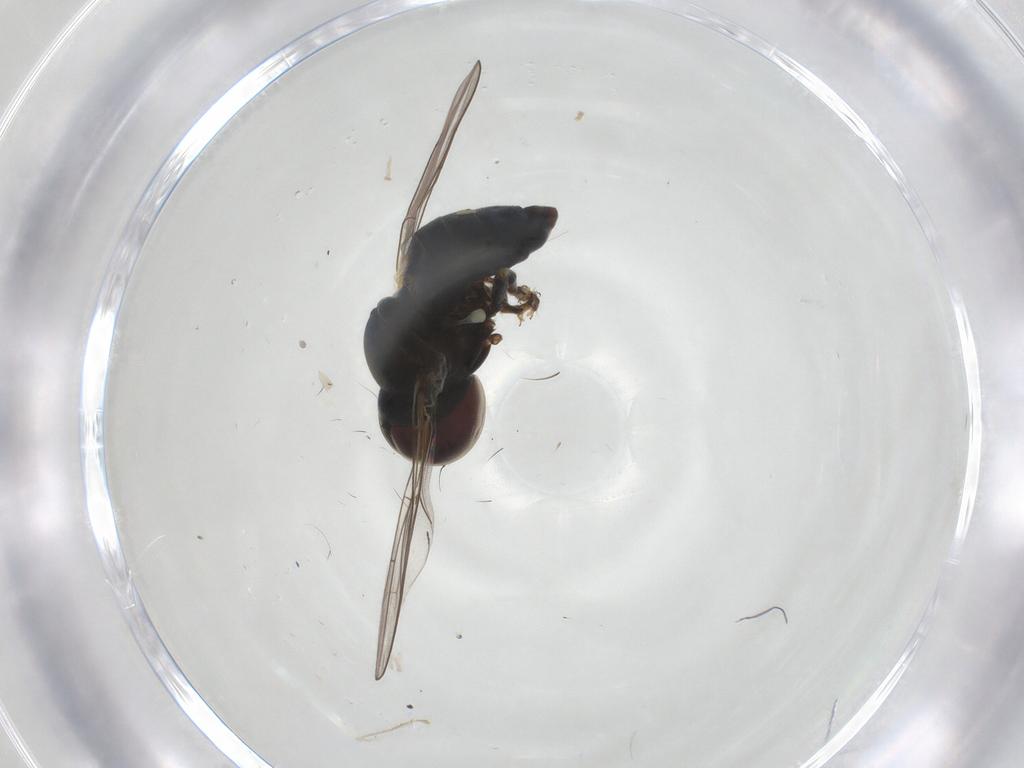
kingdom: Animalia
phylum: Arthropoda
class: Insecta
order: Diptera
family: Pipunculidae
